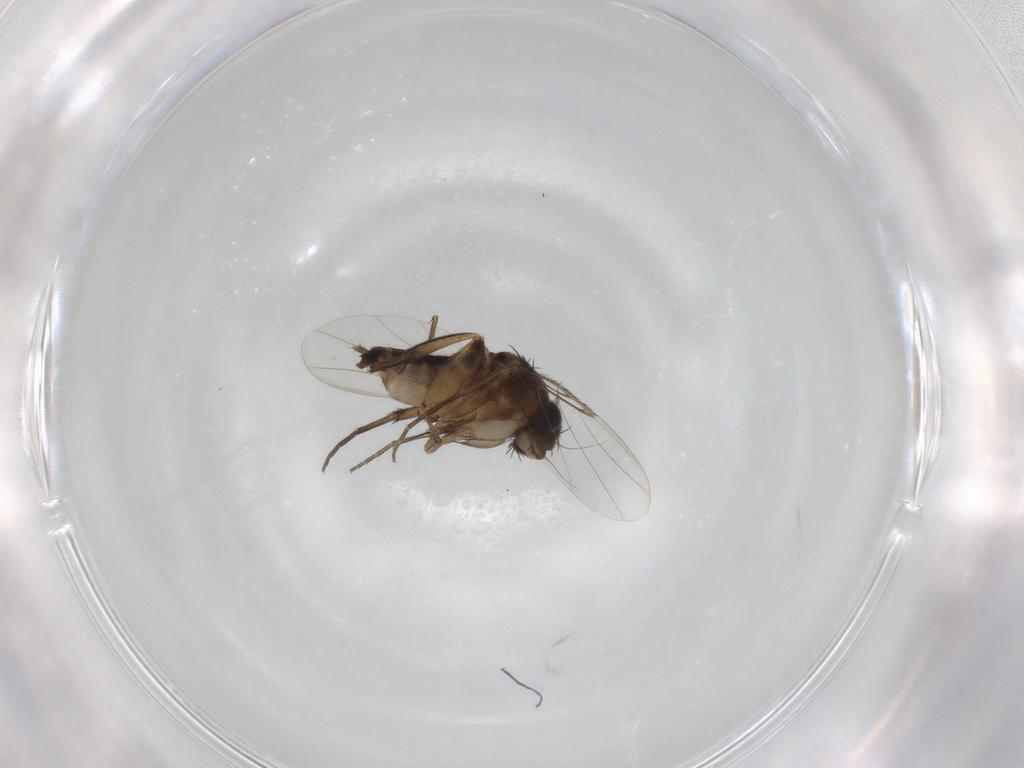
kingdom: Animalia
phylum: Arthropoda
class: Insecta
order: Diptera
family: Phoridae
